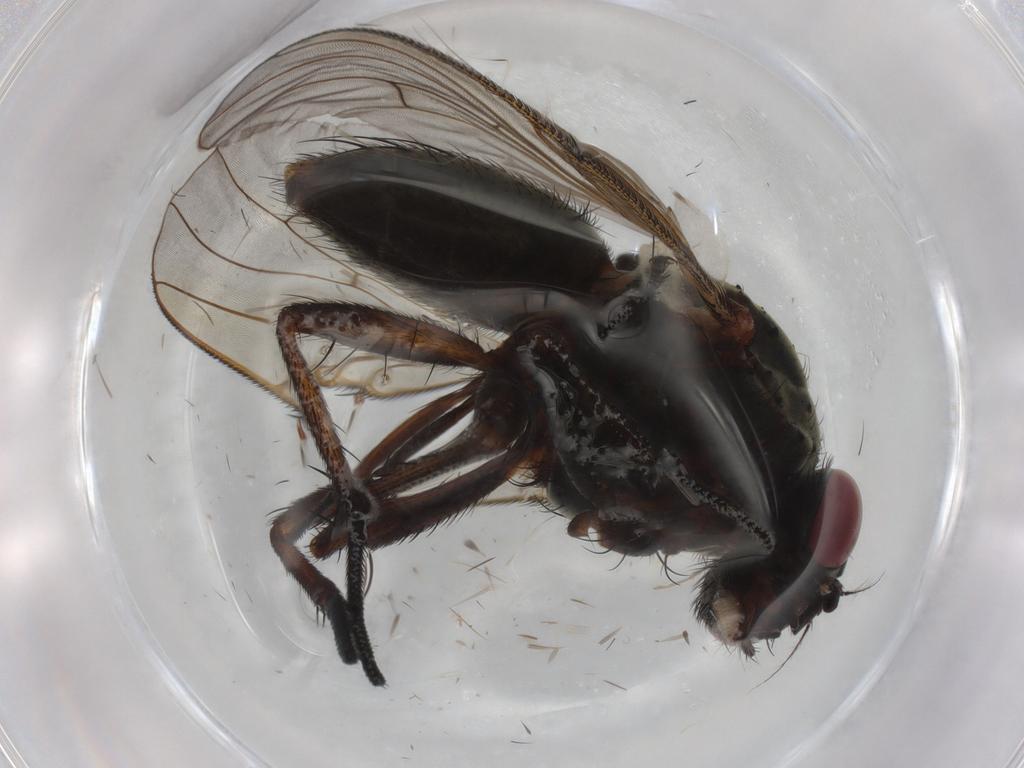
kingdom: Animalia
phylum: Arthropoda
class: Insecta
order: Diptera
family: Muscidae
